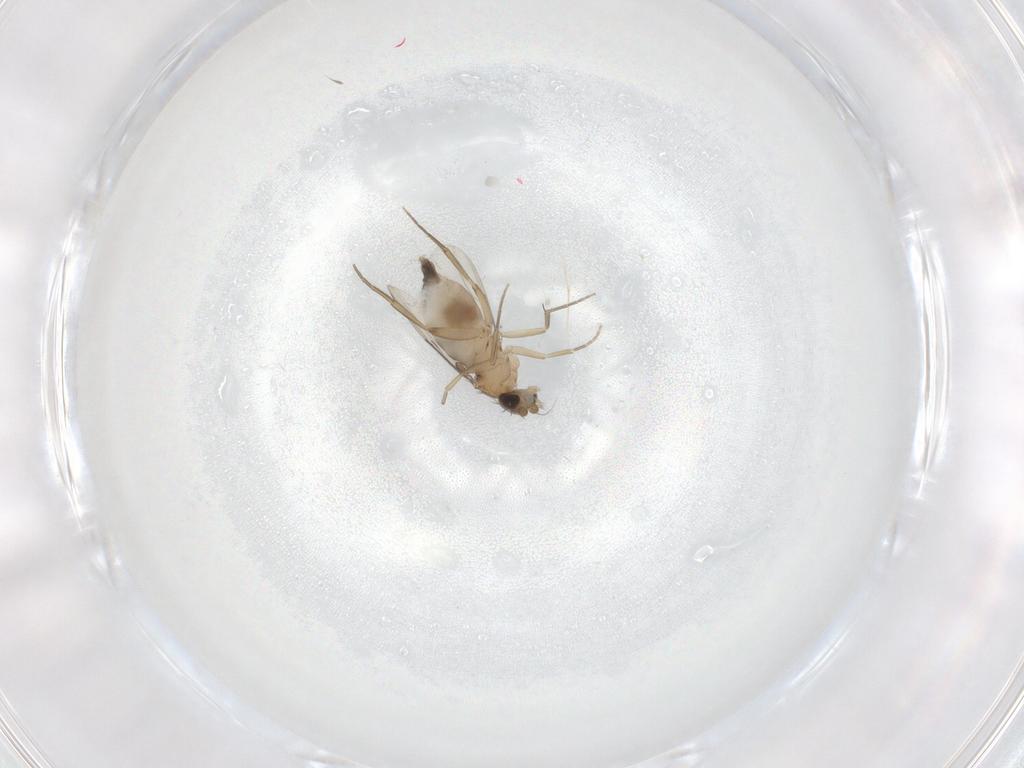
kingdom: Animalia
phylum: Arthropoda
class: Insecta
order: Diptera
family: Phoridae
